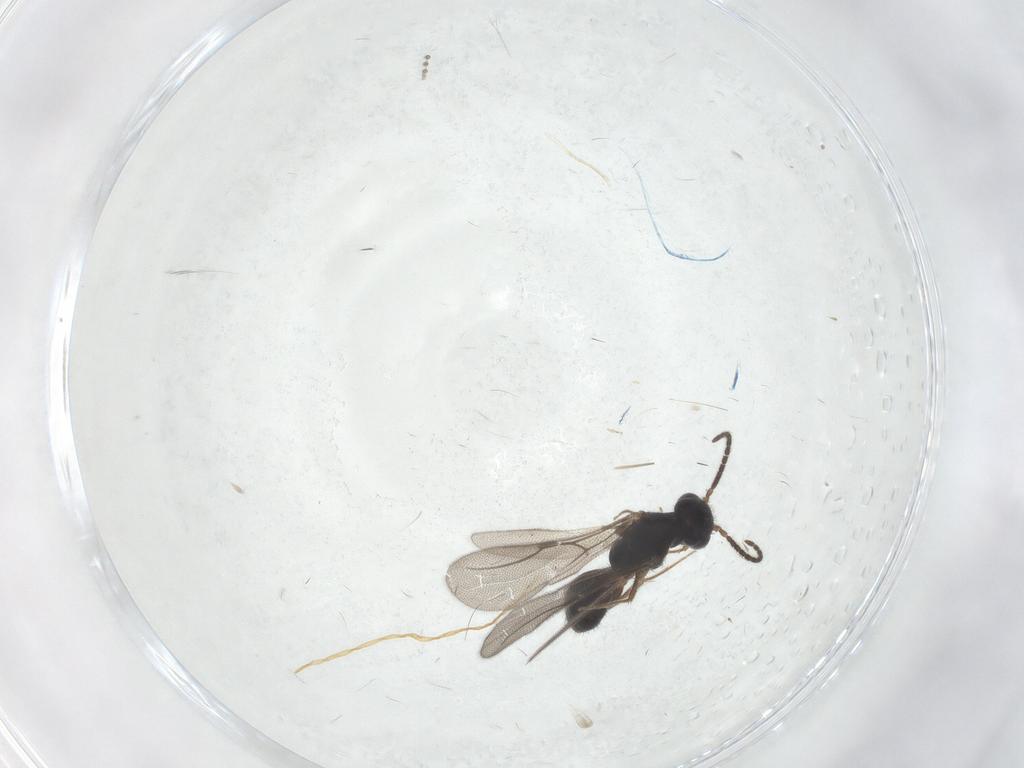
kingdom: Animalia
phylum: Arthropoda
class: Insecta
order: Hymenoptera
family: Bethylidae
